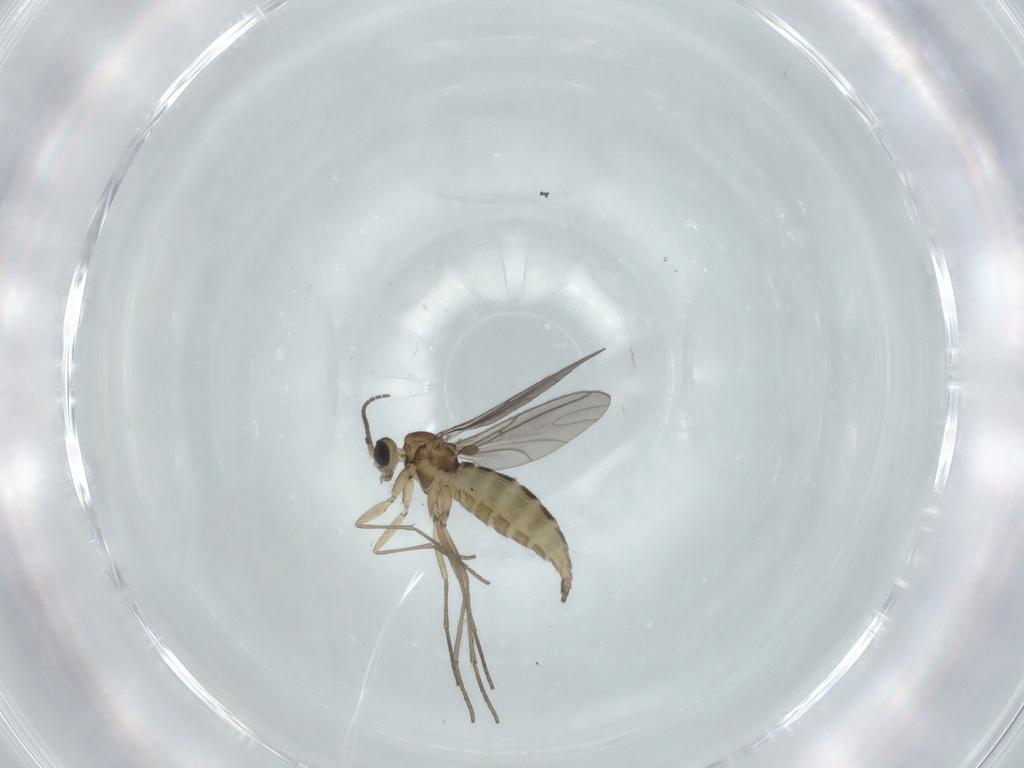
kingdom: Animalia
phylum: Arthropoda
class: Insecta
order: Diptera
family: Sciaridae
